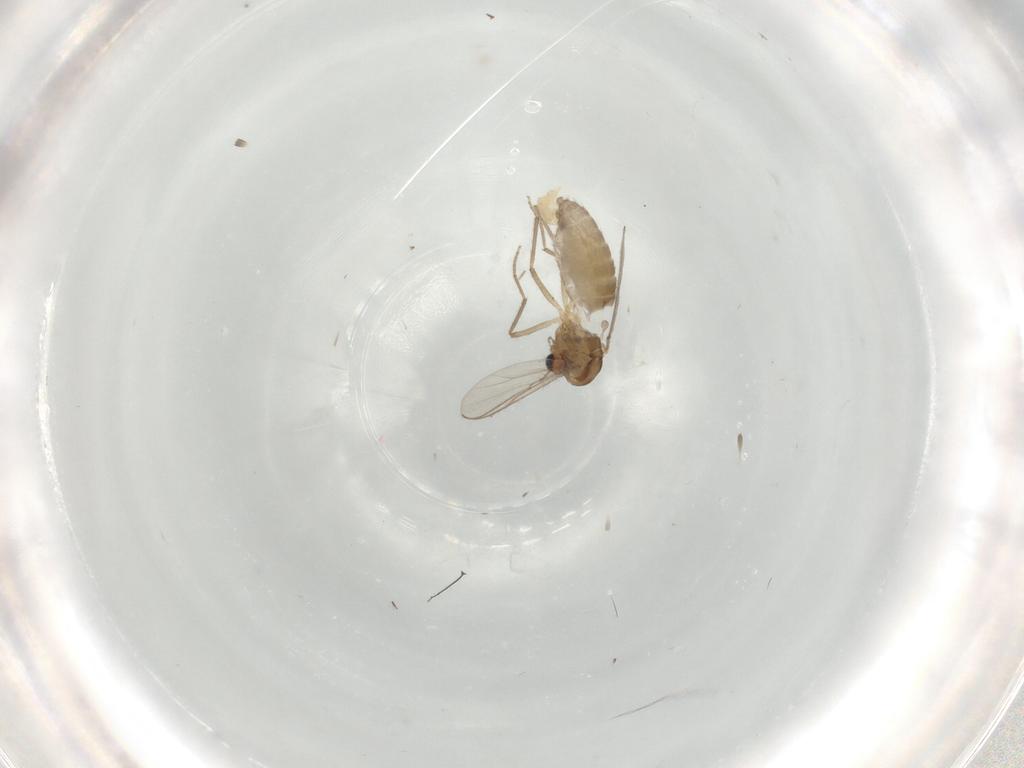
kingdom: Animalia
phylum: Arthropoda
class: Insecta
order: Diptera
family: Chironomidae
